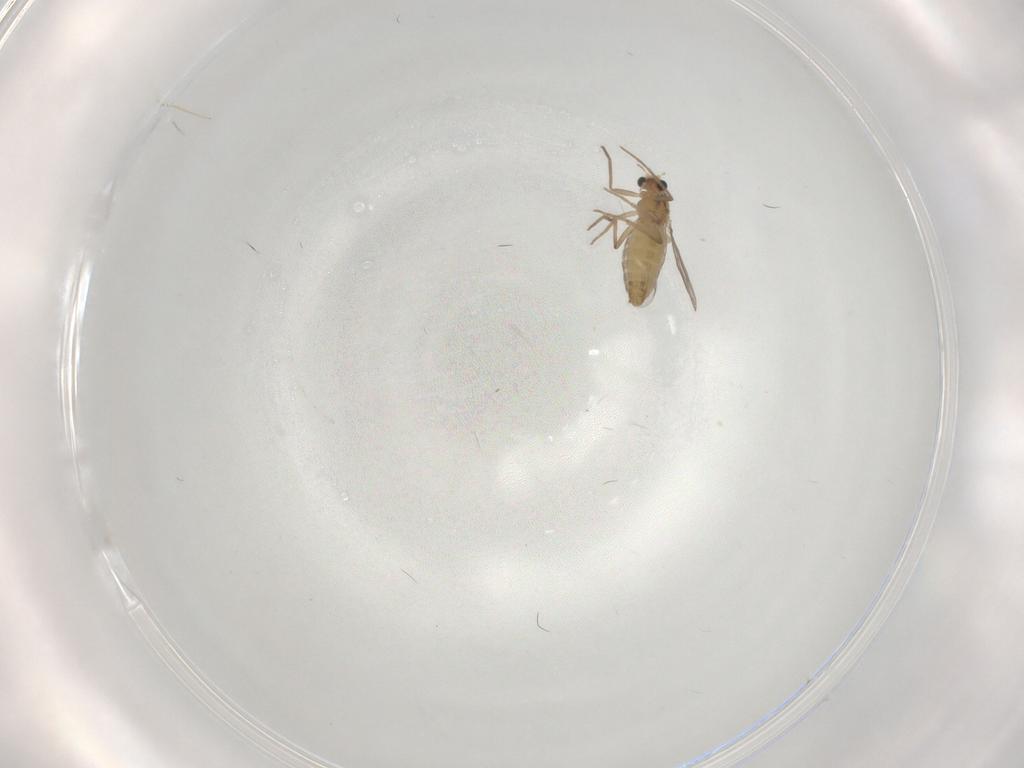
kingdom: Animalia
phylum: Arthropoda
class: Insecta
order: Diptera
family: Chironomidae
